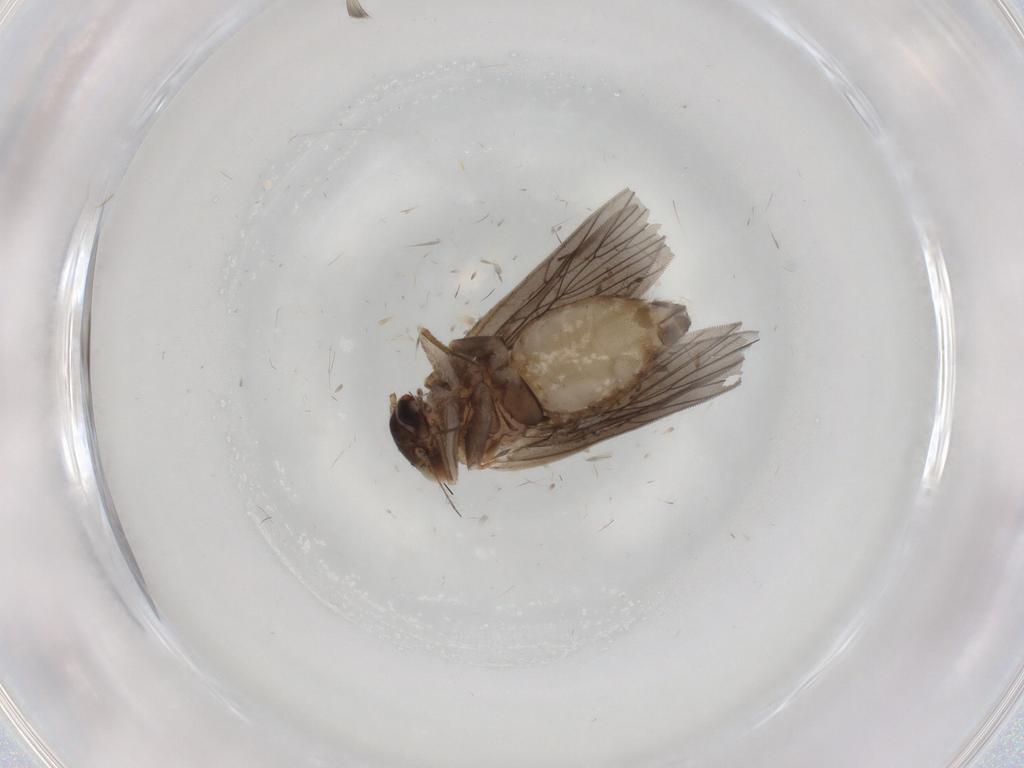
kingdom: Animalia
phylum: Arthropoda
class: Insecta
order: Psocodea
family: Lepidopsocidae
